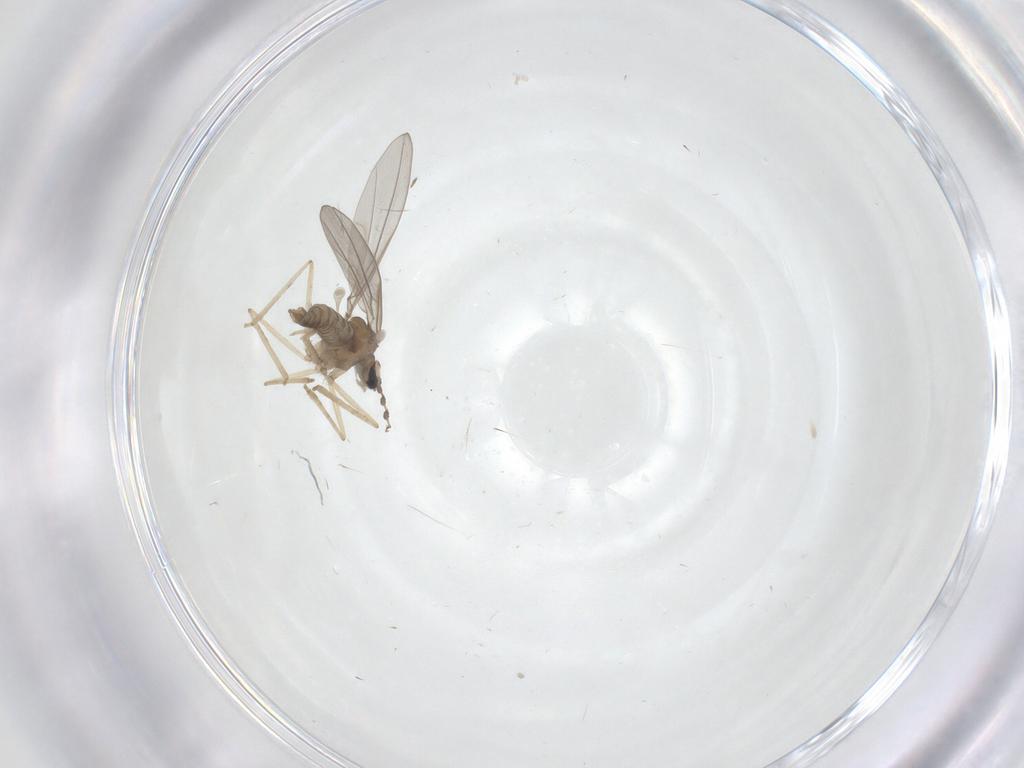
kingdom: Animalia
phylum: Arthropoda
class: Insecta
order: Diptera
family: Cecidomyiidae
